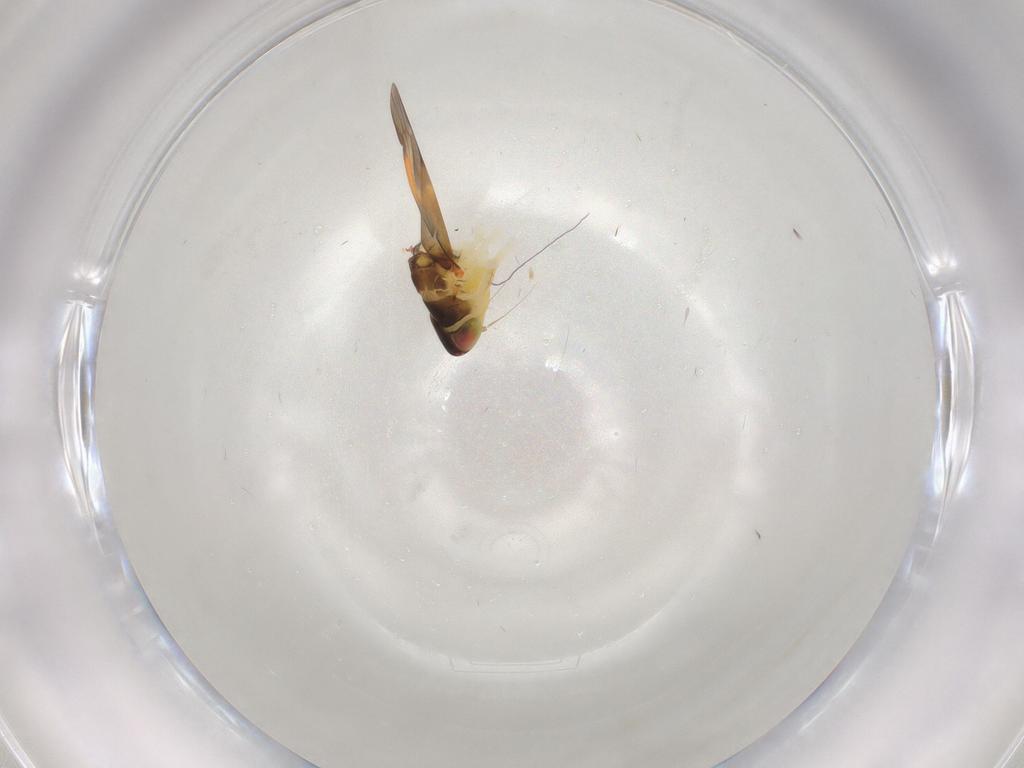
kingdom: Animalia
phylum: Arthropoda
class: Insecta
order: Hemiptera
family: Cicadellidae
